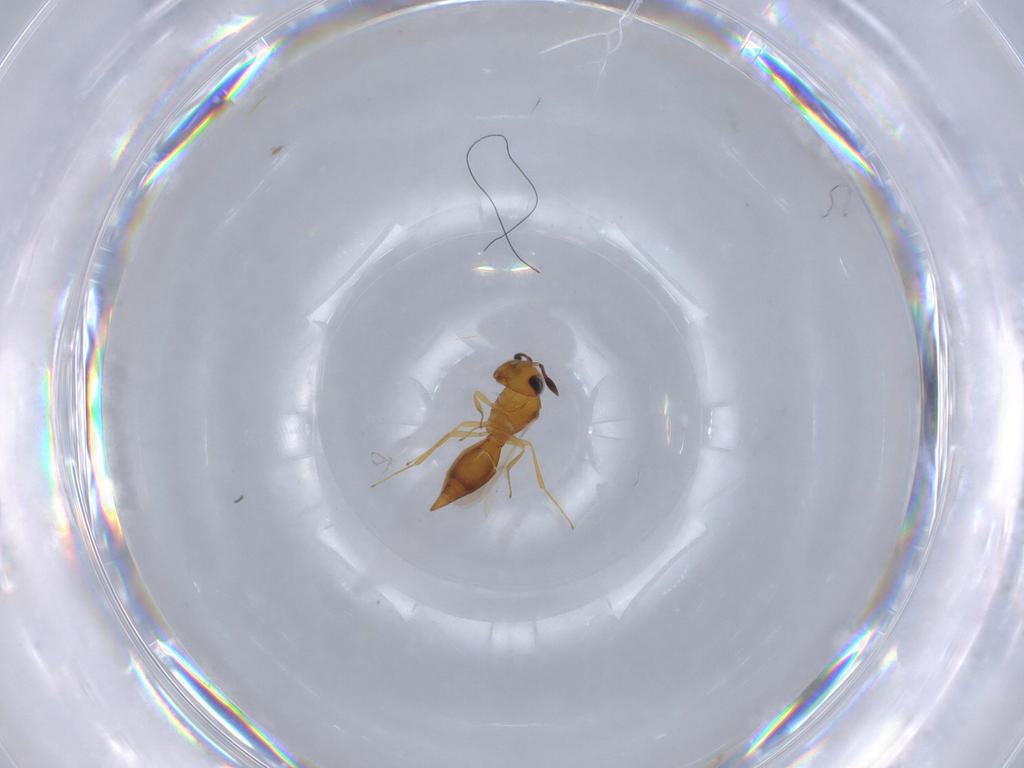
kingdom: Animalia
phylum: Arthropoda
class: Insecta
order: Hymenoptera
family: Scelionidae
